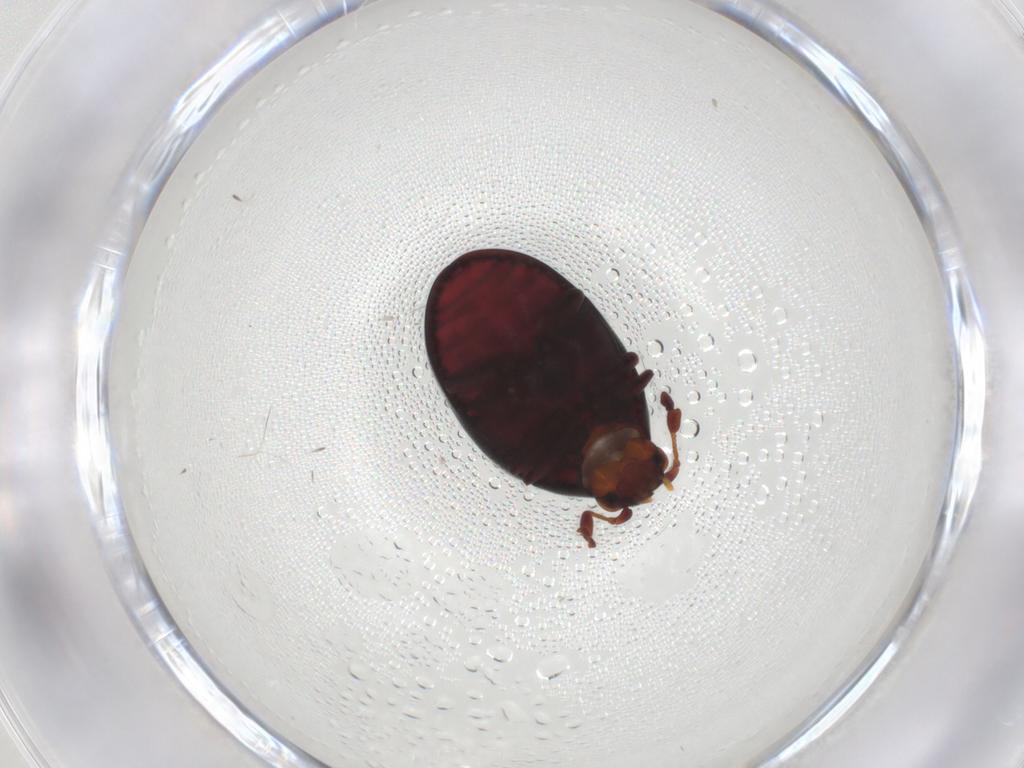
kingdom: Animalia
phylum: Arthropoda
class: Insecta
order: Coleoptera
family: Ptinidae
